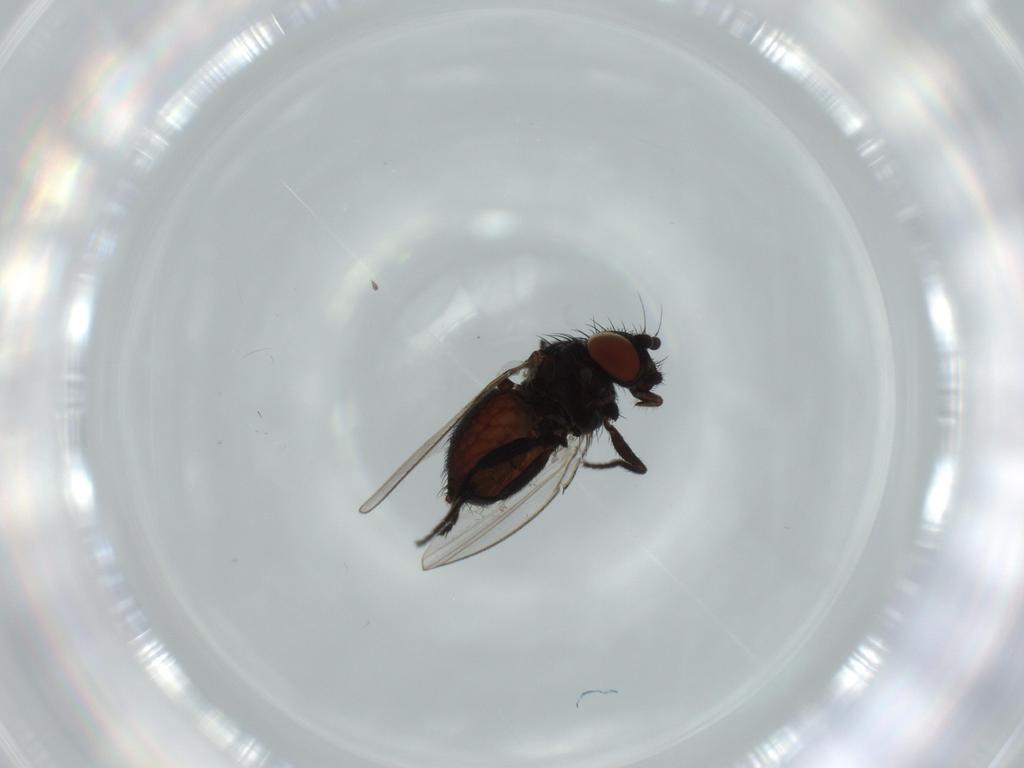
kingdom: Animalia
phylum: Arthropoda
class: Insecta
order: Diptera
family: Milichiidae
